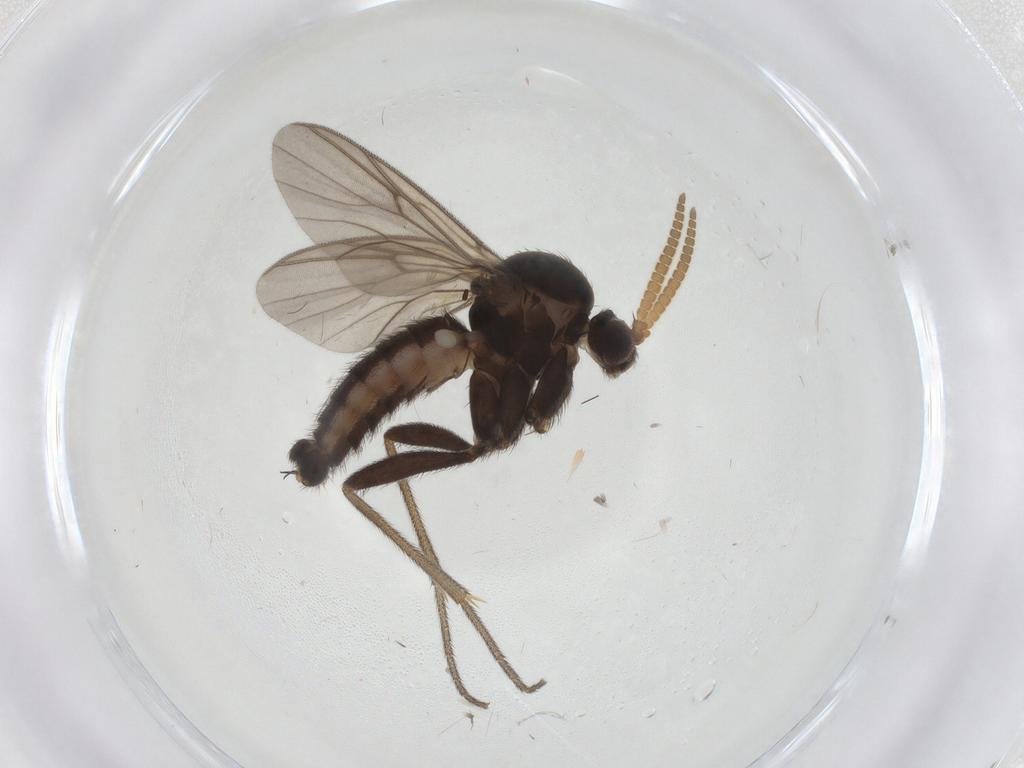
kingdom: Animalia
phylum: Arthropoda
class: Insecta
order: Diptera
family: Mycetophilidae
